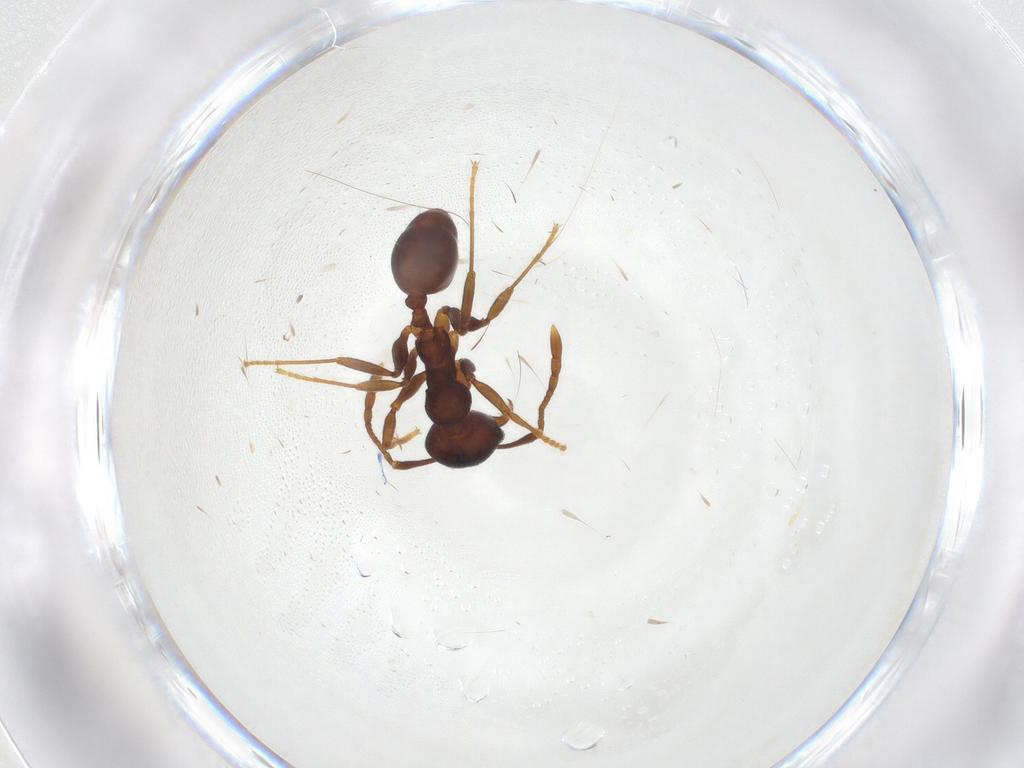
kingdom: Animalia
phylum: Arthropoda
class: Insecta
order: Hymenoptera
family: Formicidae
